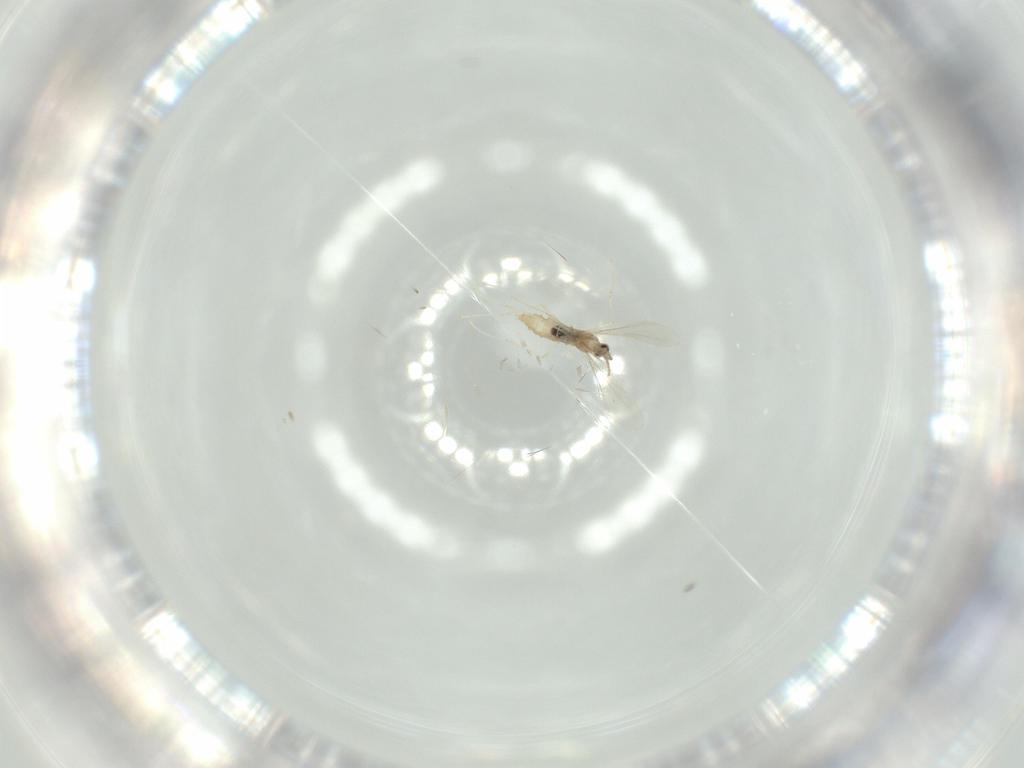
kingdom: Animalia
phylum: Arthropoda
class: Insecta
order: Diptera
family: Cecidomyiidae
